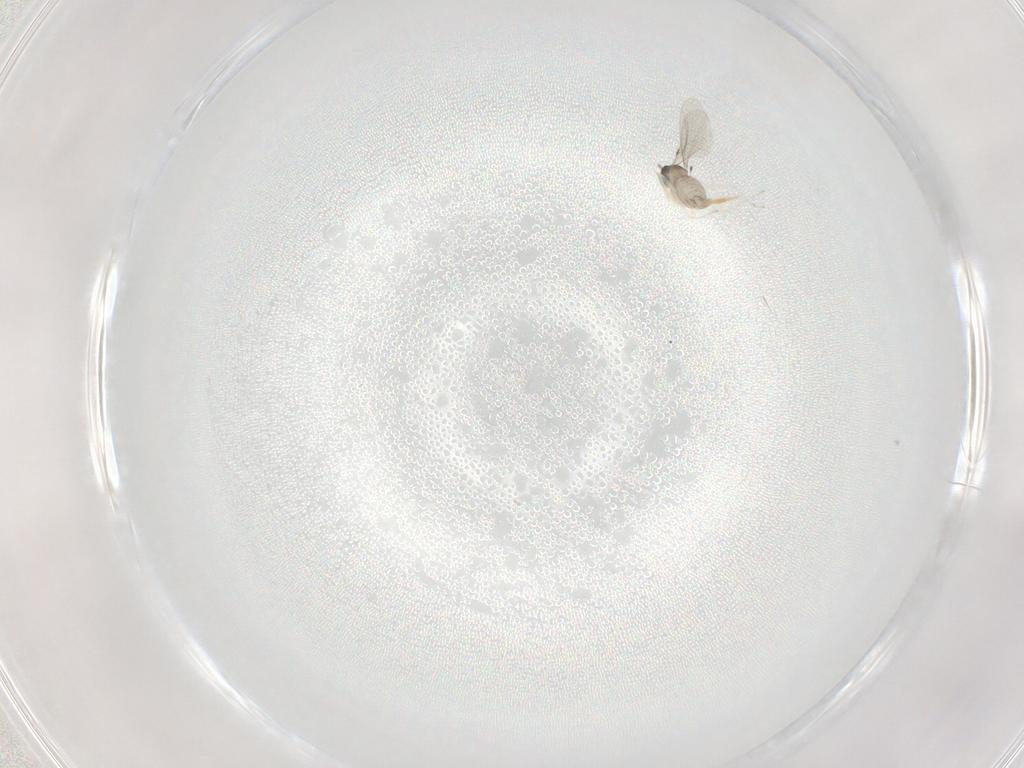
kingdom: Animalia
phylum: Arthropoda
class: Insecta
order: Diptera
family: Cecidomyiidae
